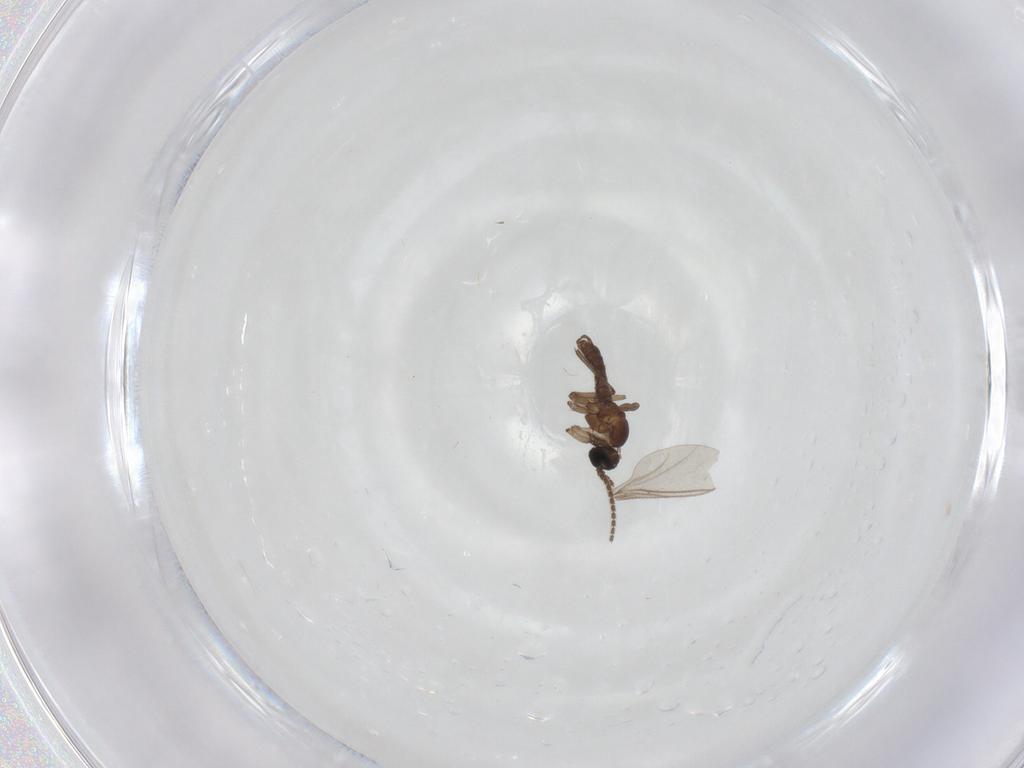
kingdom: Animalia
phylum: Arthropoda
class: Insecta
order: Diptera
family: Sphaeroceridae
